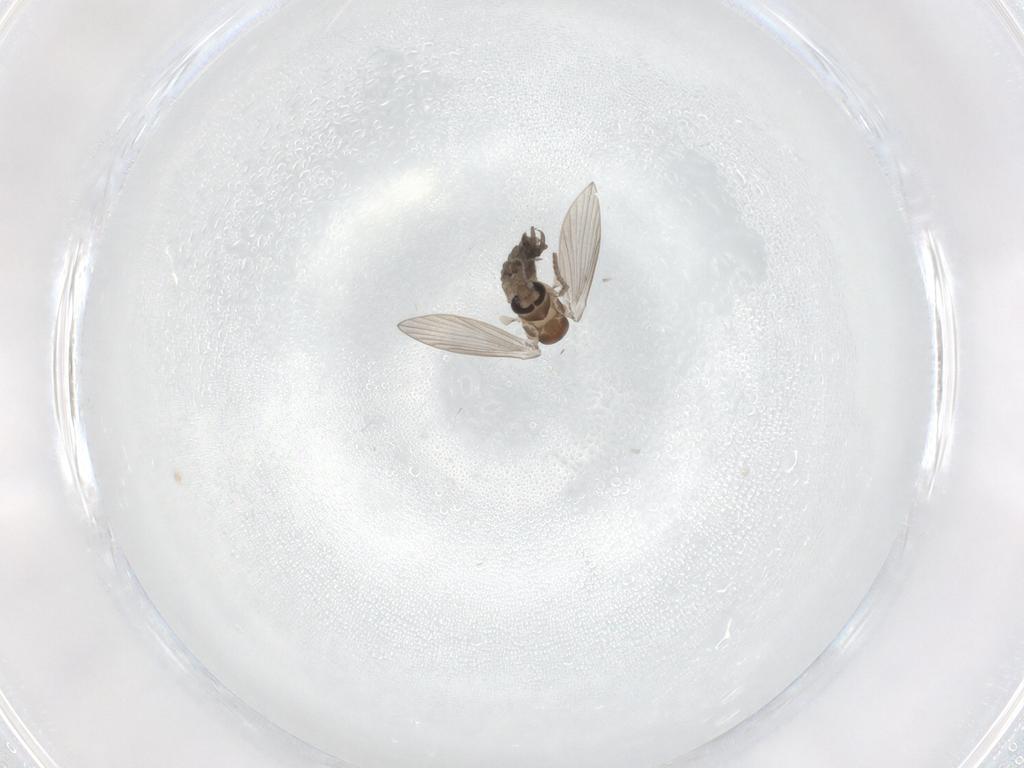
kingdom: Animalia
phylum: Arthropoda
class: Insecta
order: Diptera
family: Psychodidae
